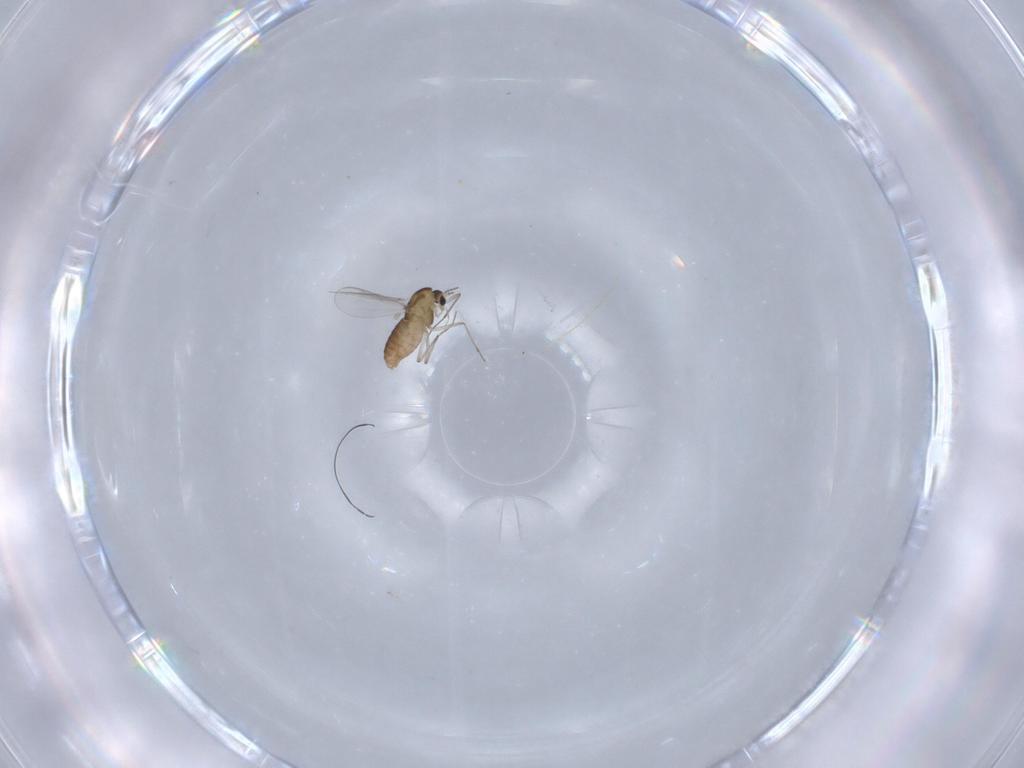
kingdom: Animalia
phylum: Arthropoda
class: Insecta
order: Diptera
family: Chironomidae
